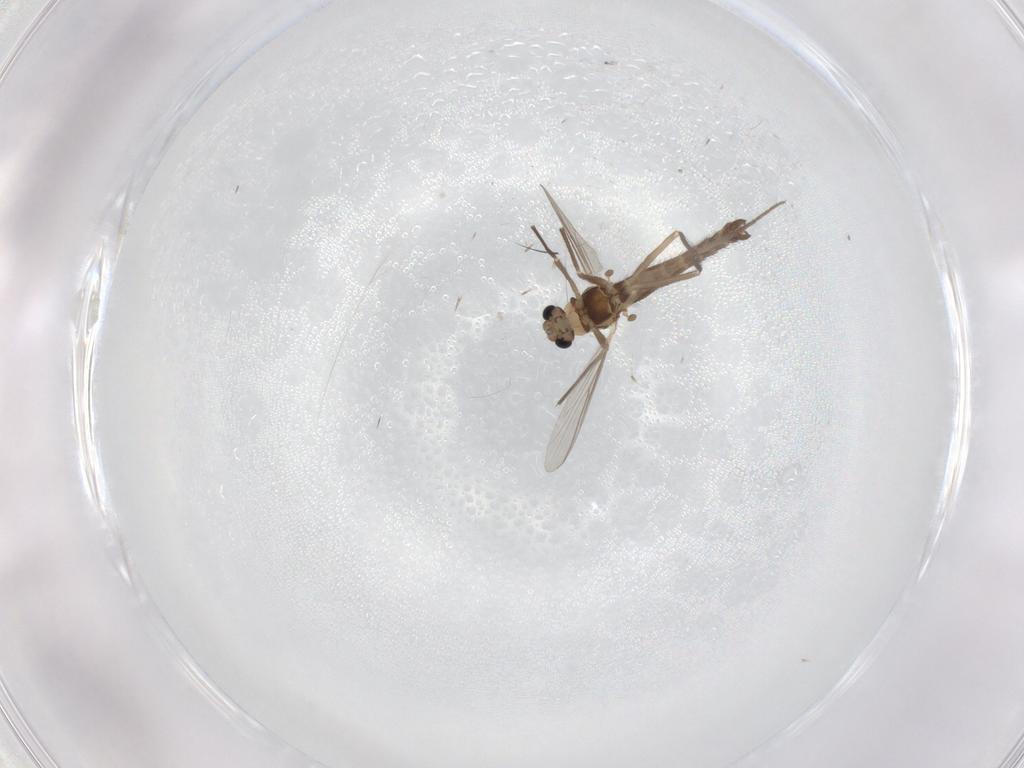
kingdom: Animalia
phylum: Arthropoda
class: Insecta
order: Diptera
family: Chironomidae
